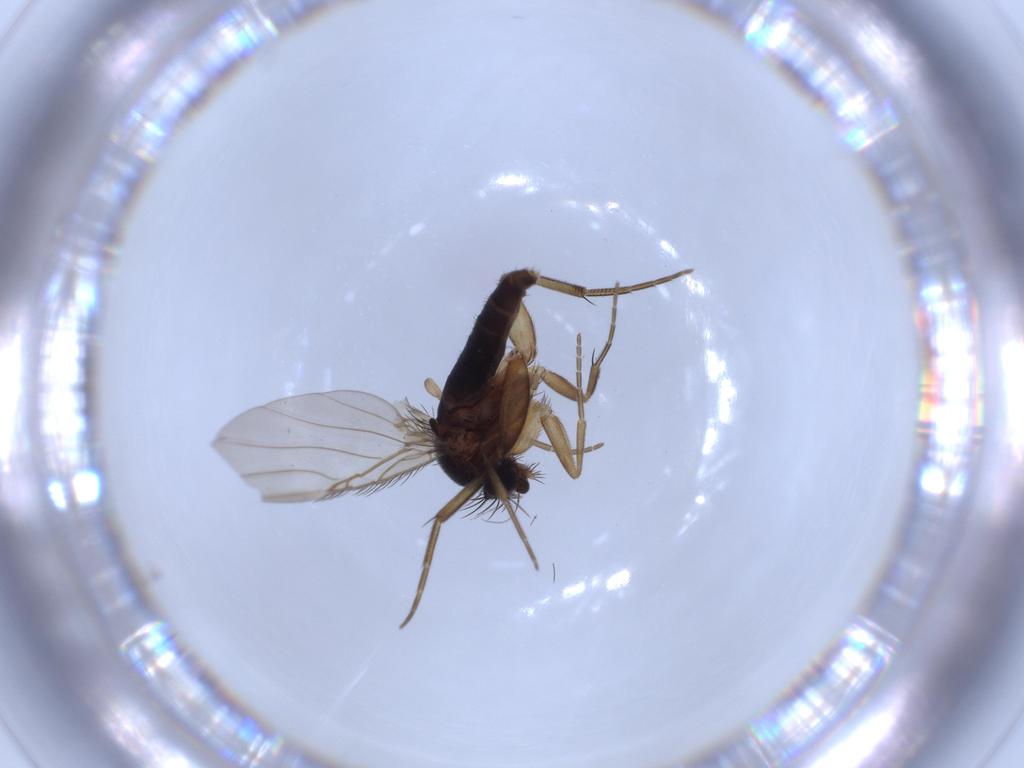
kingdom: Animalia
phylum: Arthropoda
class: Insecta
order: Diptera
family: Phoridae
